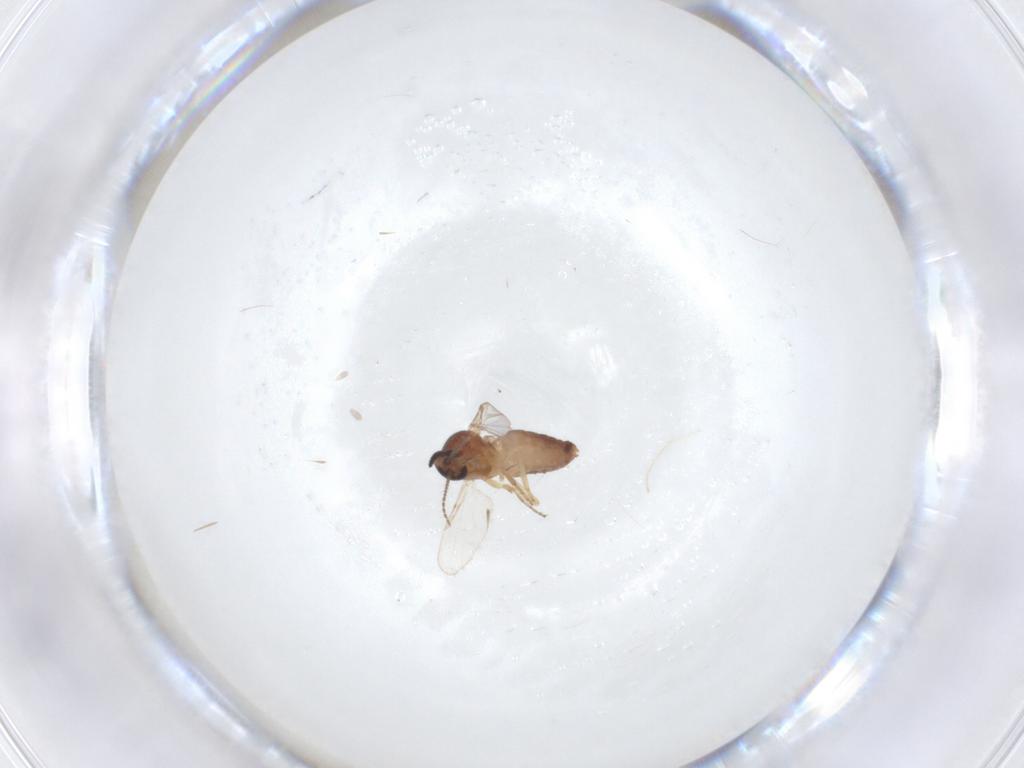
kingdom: Animalia
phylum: Arthropoda
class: Insecta
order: Diptera
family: Ceratopogonidae
